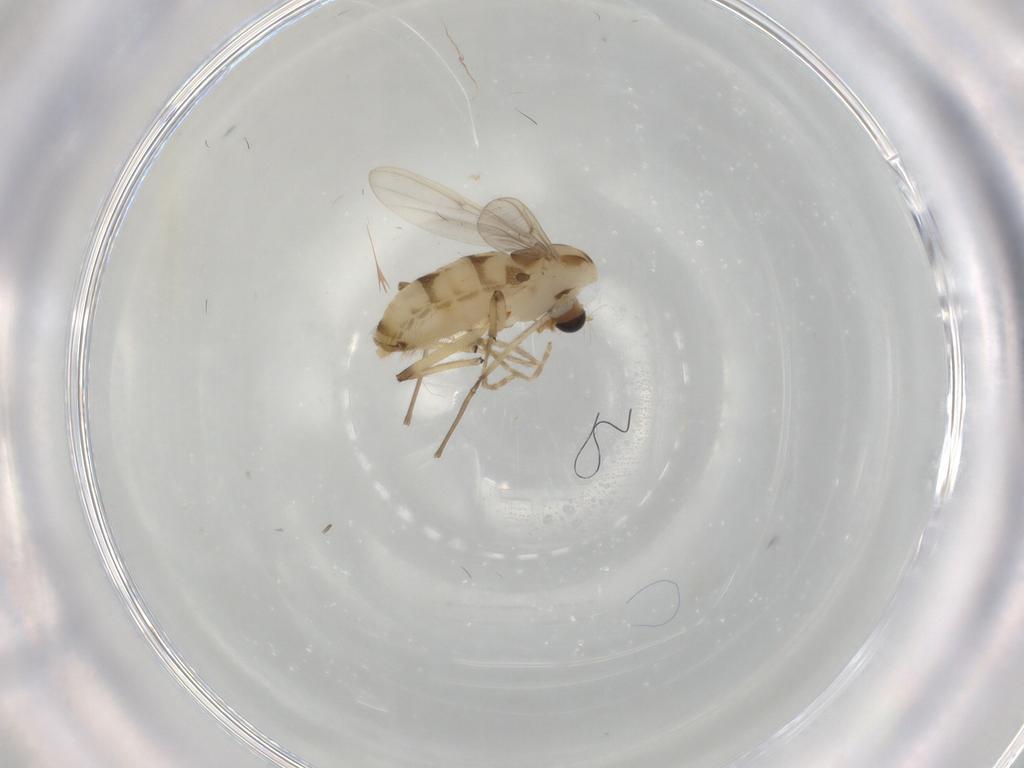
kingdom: Animalia
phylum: Arthropoda
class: Insecta
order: Diptera
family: Chironomidae
